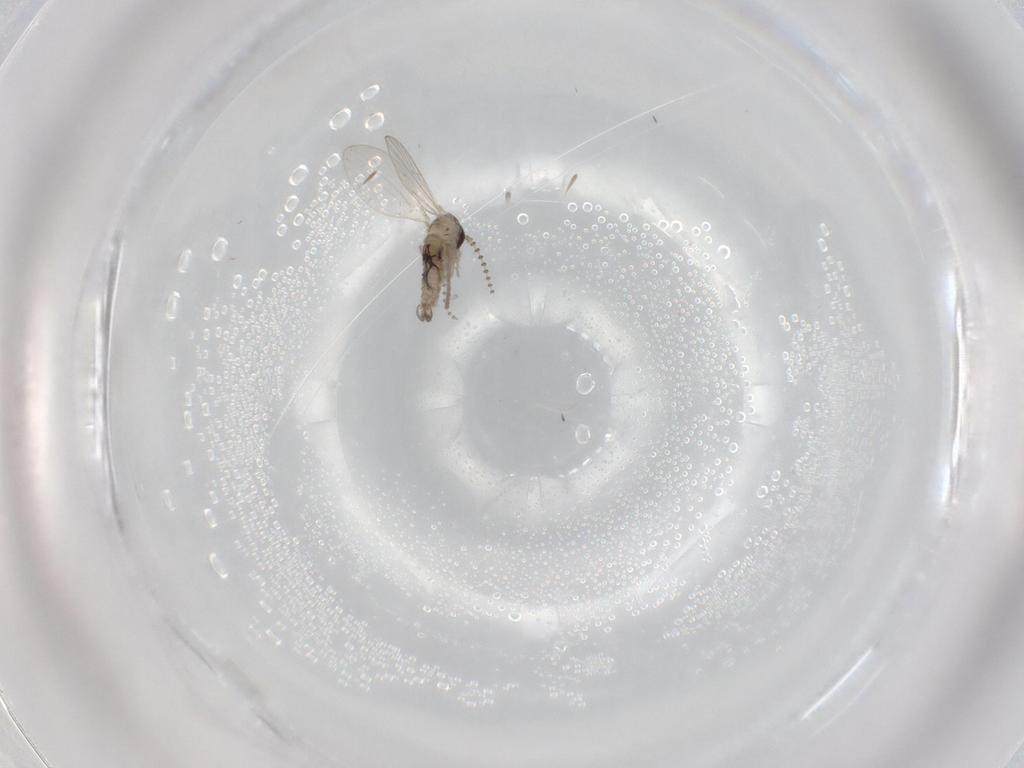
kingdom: Animalia
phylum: Arthropoda
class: Insecta
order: Diptera
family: Psychodidae
